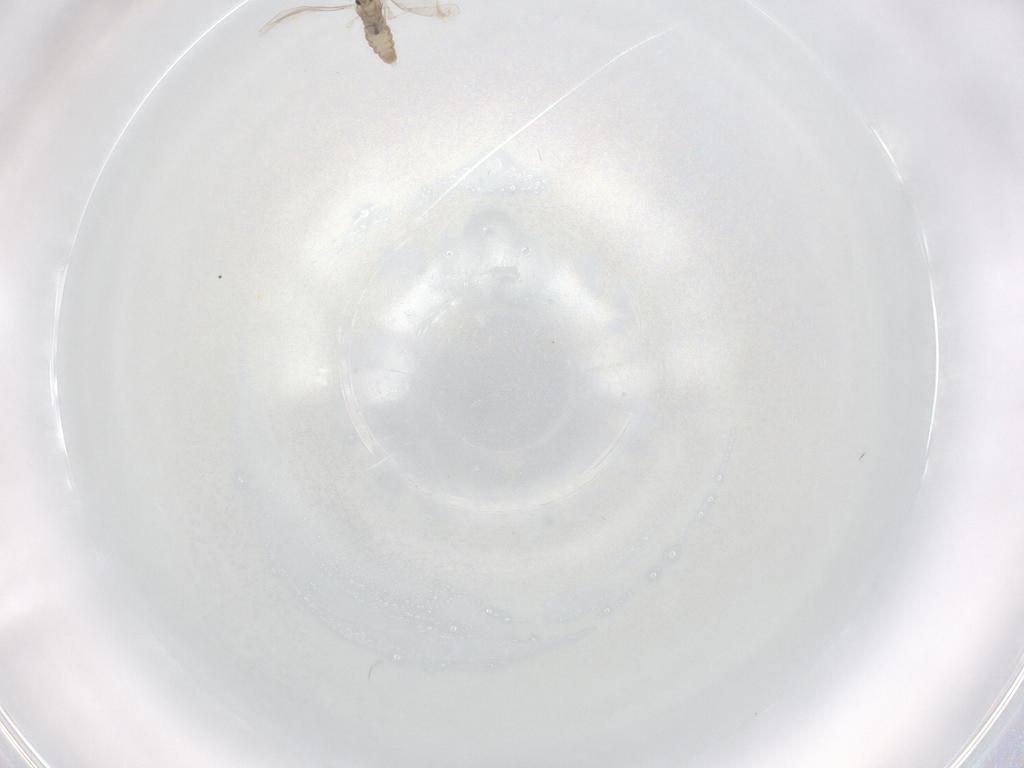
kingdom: Animalia
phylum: Arthropoda
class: Insecta
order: Diptera
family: Cecidomyiidae
